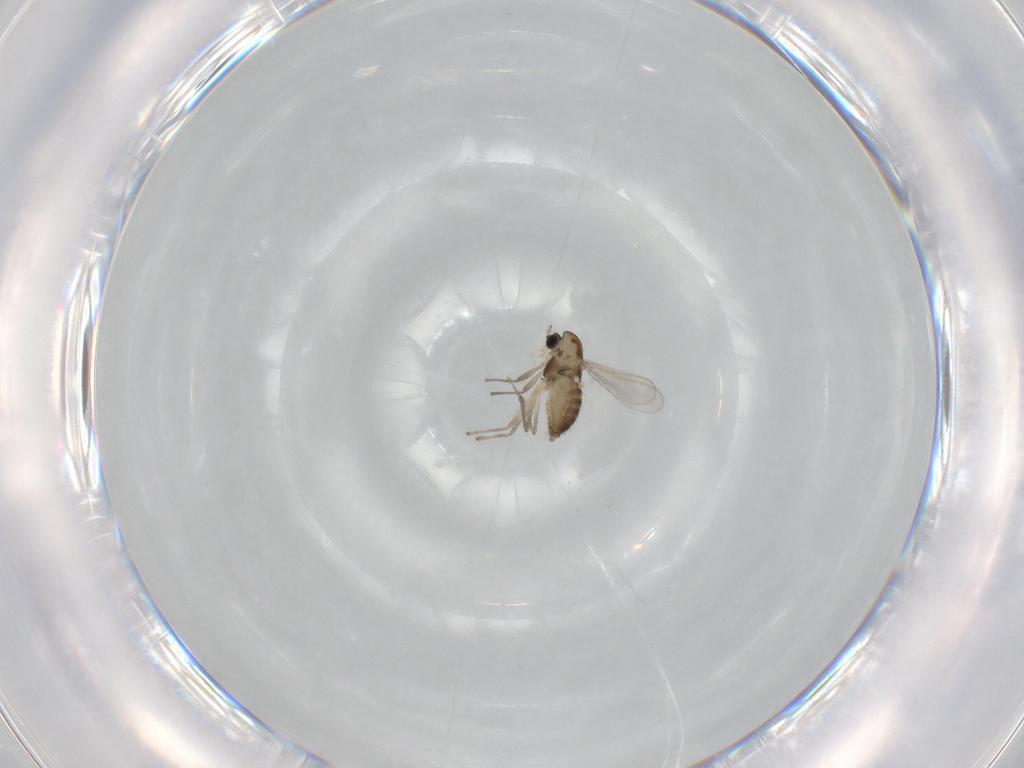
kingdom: Animalia
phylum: Arthropoda
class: Insecta
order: Diptera
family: Chironomidae
